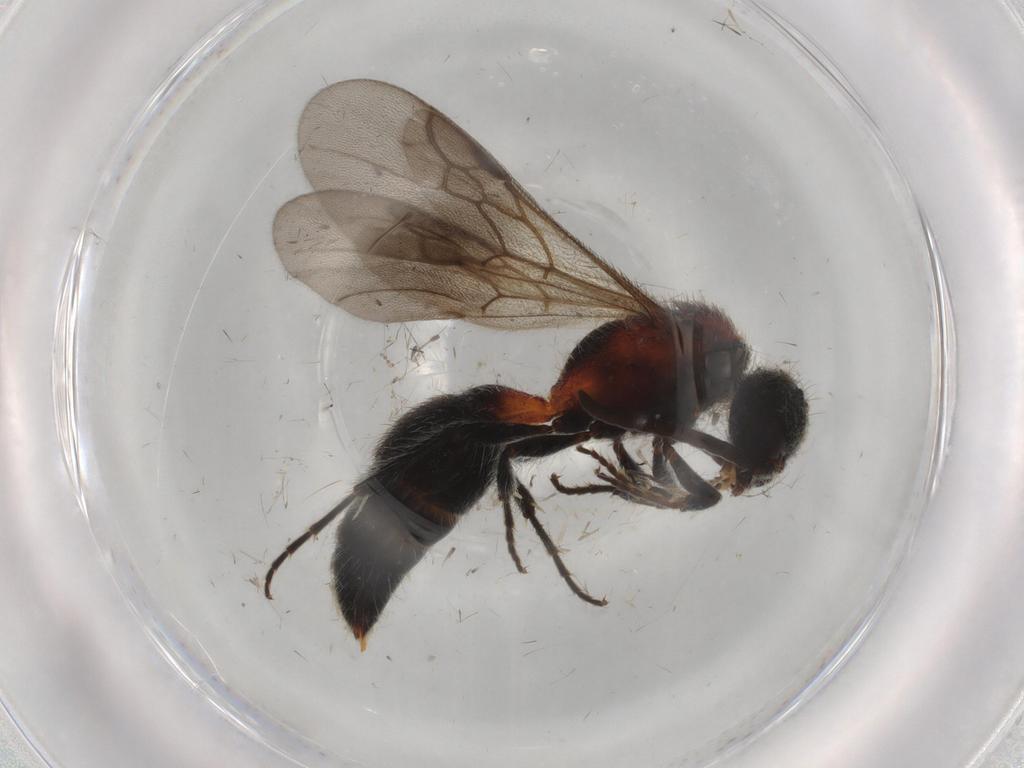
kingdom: Animalia
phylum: Arthropoda
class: Insecta
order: Hymenoptera
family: Mutillidae
